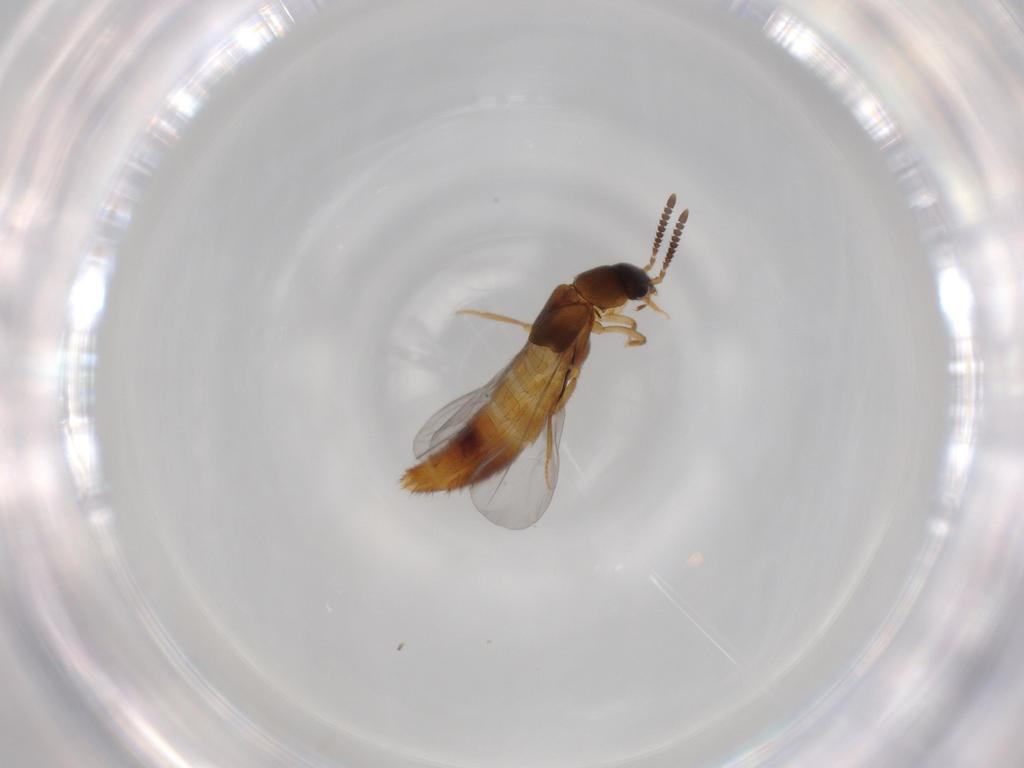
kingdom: Animalia
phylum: Arthropoda
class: Insecta
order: Coleoptera
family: Staphylinidae
